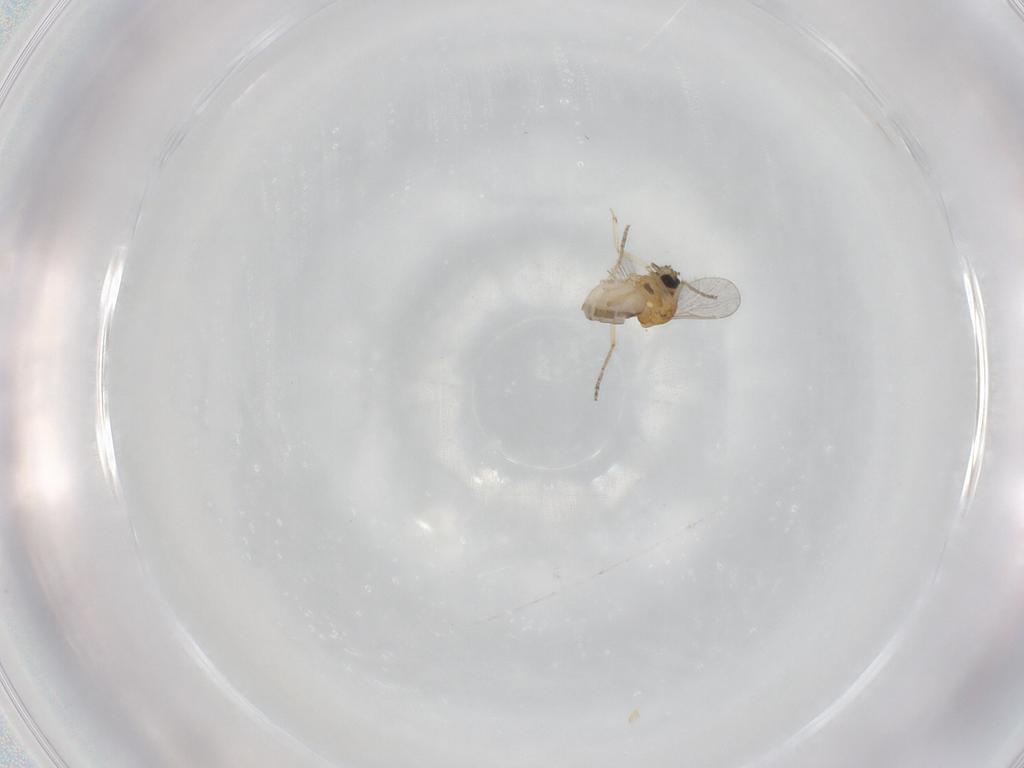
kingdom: Animalia
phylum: Arthropoda
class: Insecta
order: Diptera
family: Ceratopogonidae
